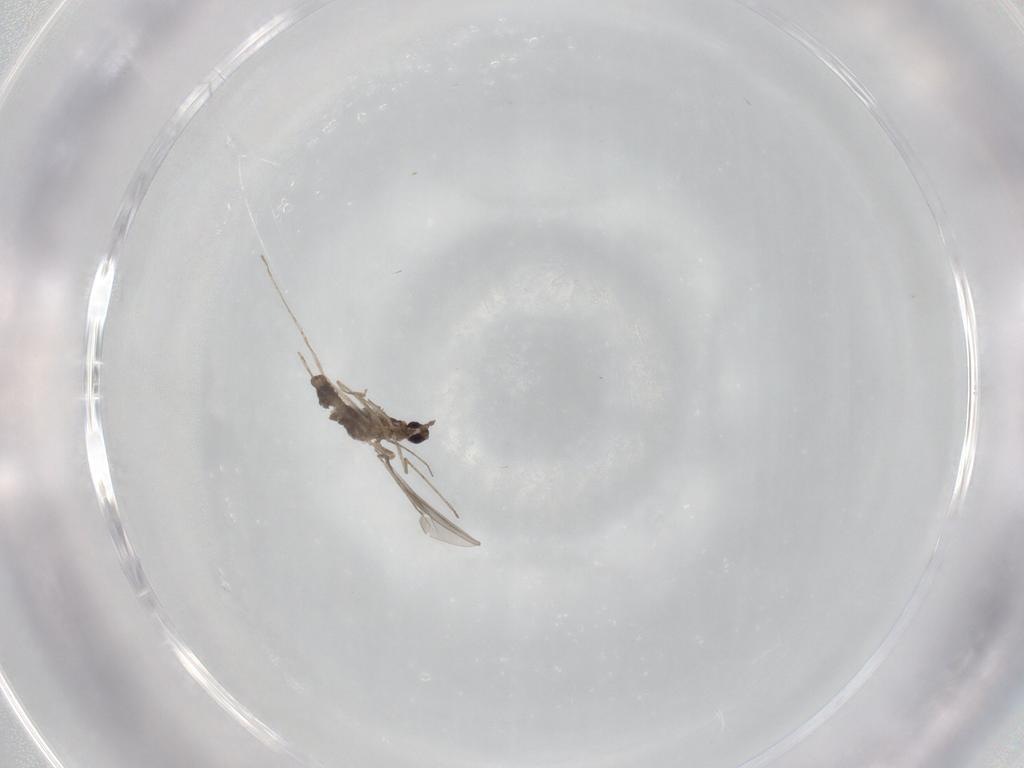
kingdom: Animalia
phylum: Arthropoda
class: Insecta
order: Diptera
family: Cecidomyiidae
